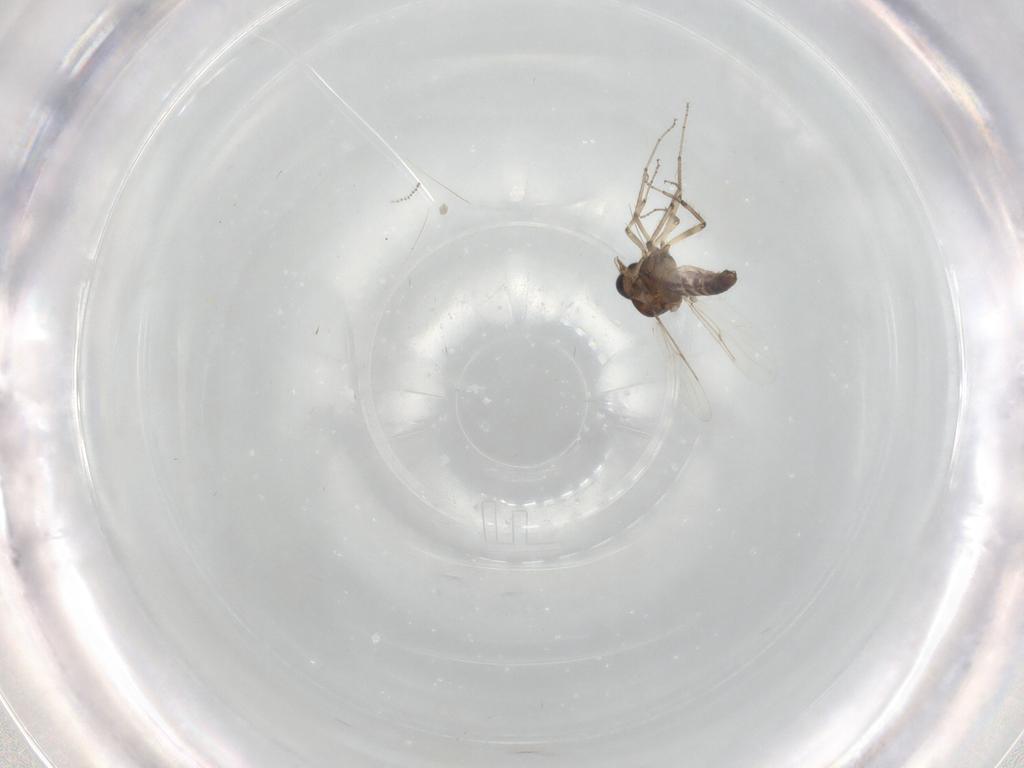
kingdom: Animalia
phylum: Arthropoda
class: Insecta
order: Diptera
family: Ceratopogonidae
